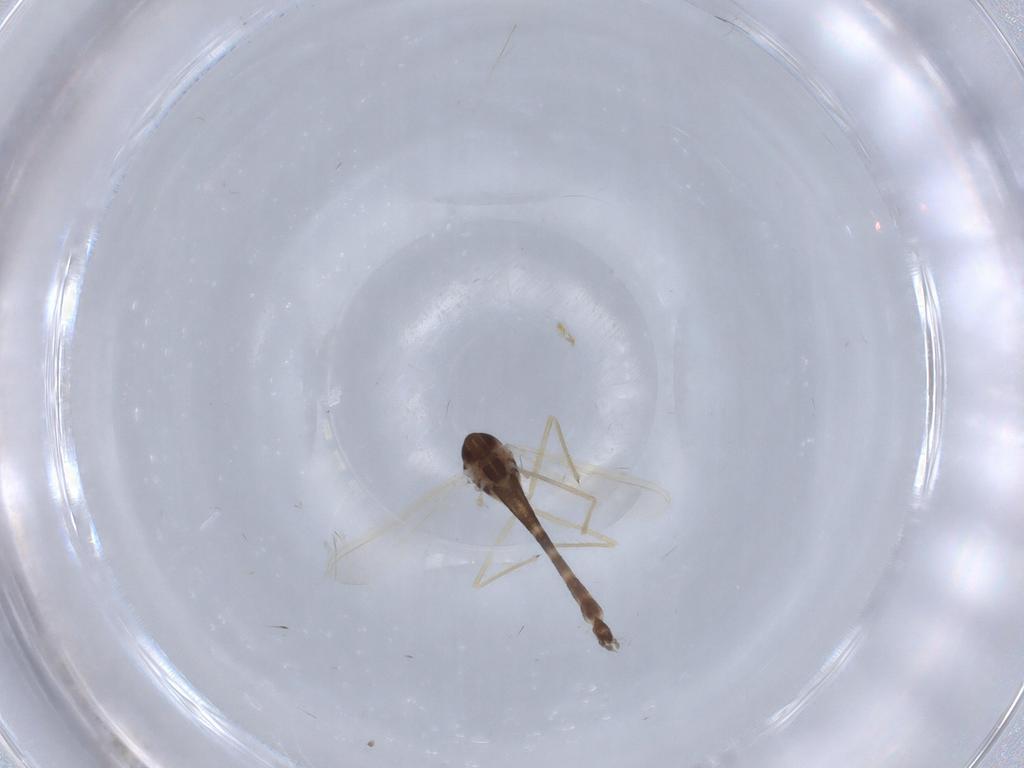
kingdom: Animalia
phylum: Arthropoda
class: Insecta
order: Diptera
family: Chironomidae
